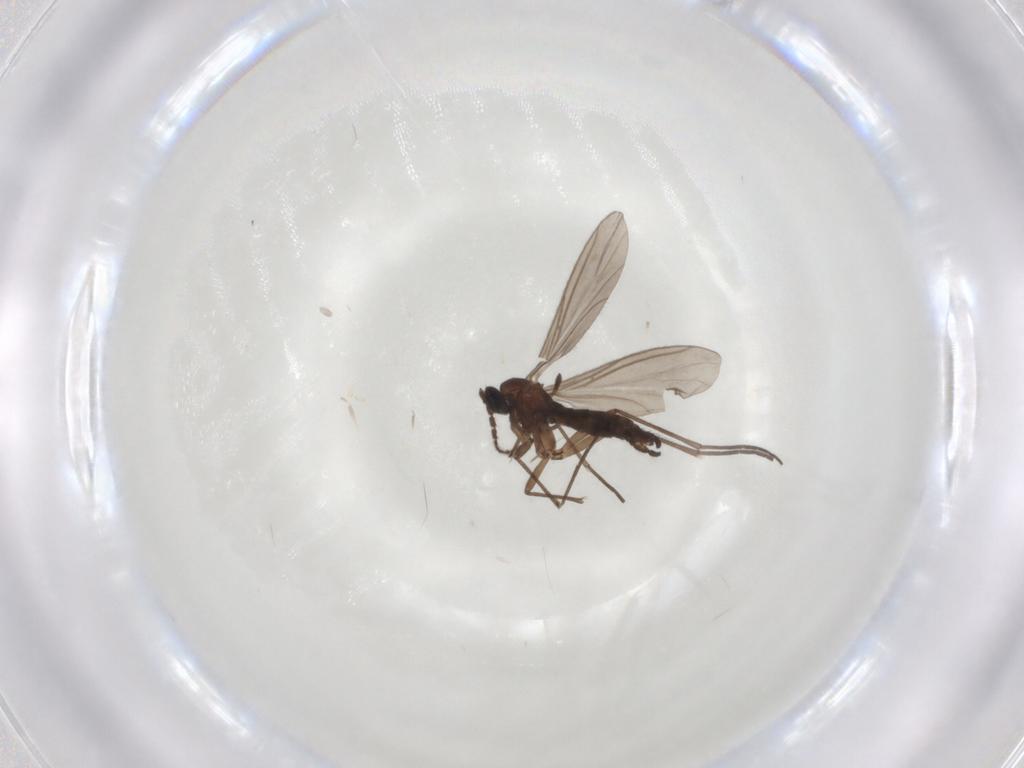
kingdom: Animalia
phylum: Arthropoda
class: Insecta
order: Diptera
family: Sciaridae
